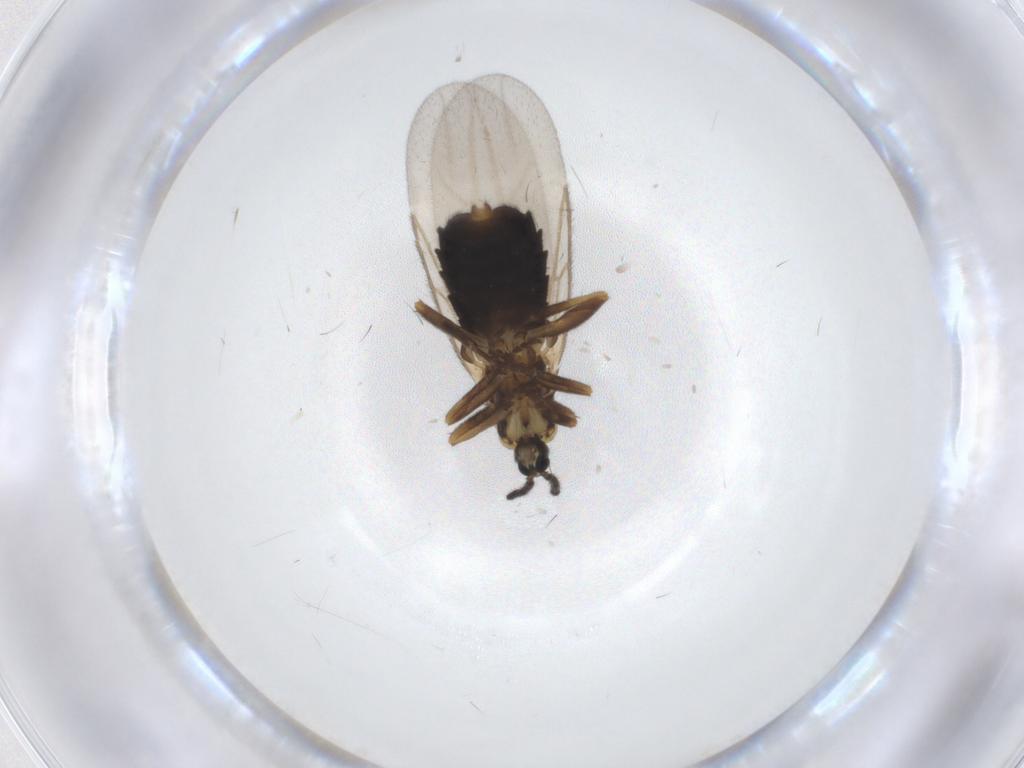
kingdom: Animalia
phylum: Arthropoda
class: Insecta
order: Diptera
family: Scatopsidae
